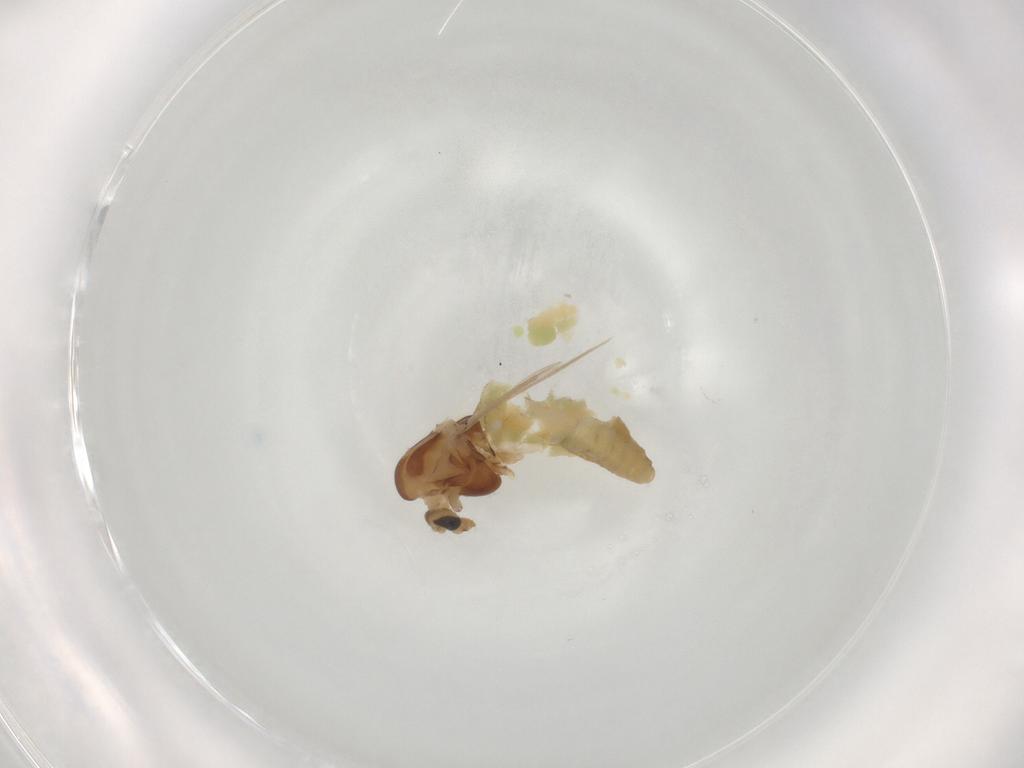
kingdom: Animalia
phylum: Arthropoda
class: Insecta
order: Diptera
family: Chironomidae
